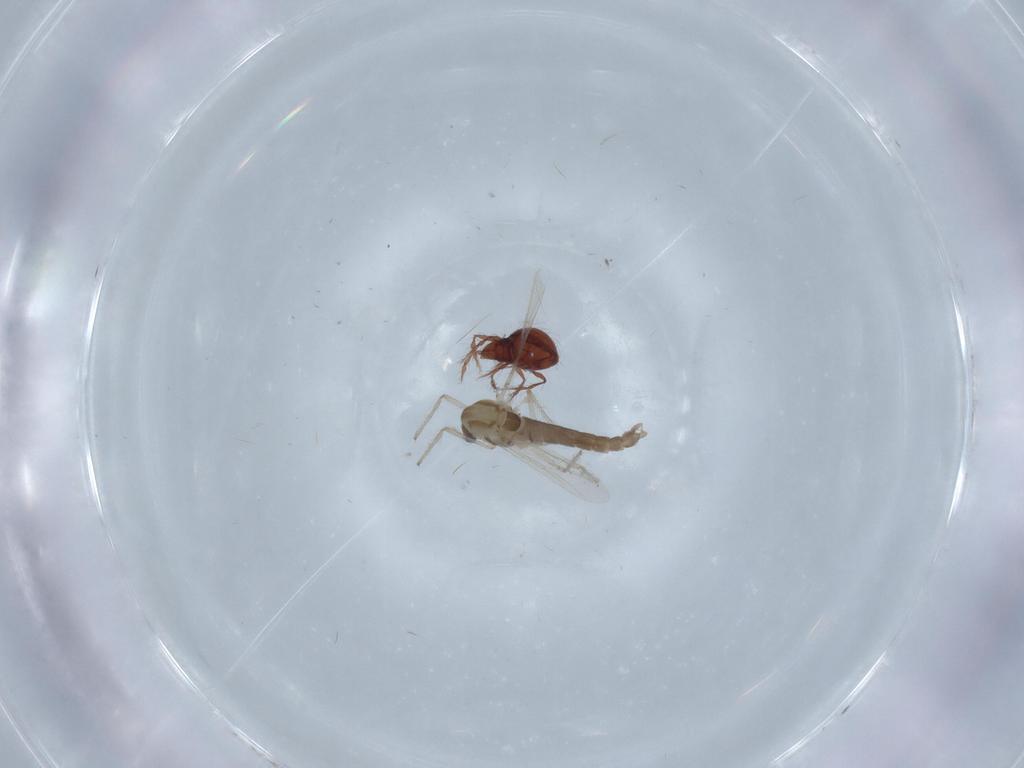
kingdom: Animalia
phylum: Arthropoda
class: Insecta
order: Diptera
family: Chironomidae
